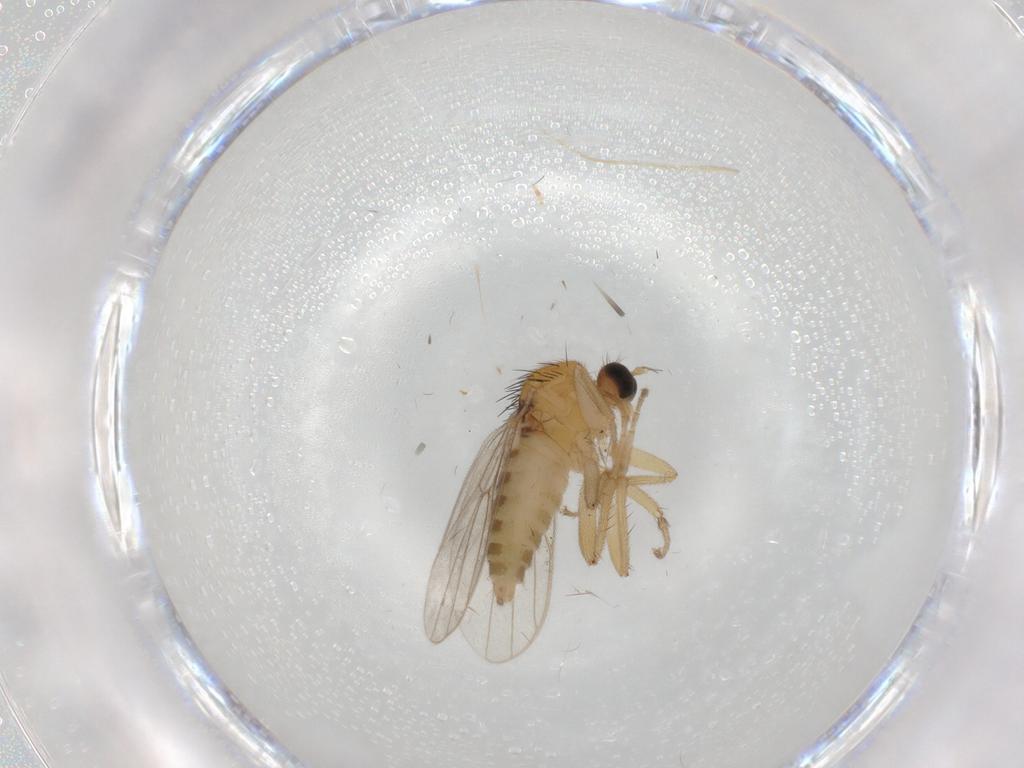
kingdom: Animalia
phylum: Arthropoda
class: Insecta
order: Diptera
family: Hybotidae
